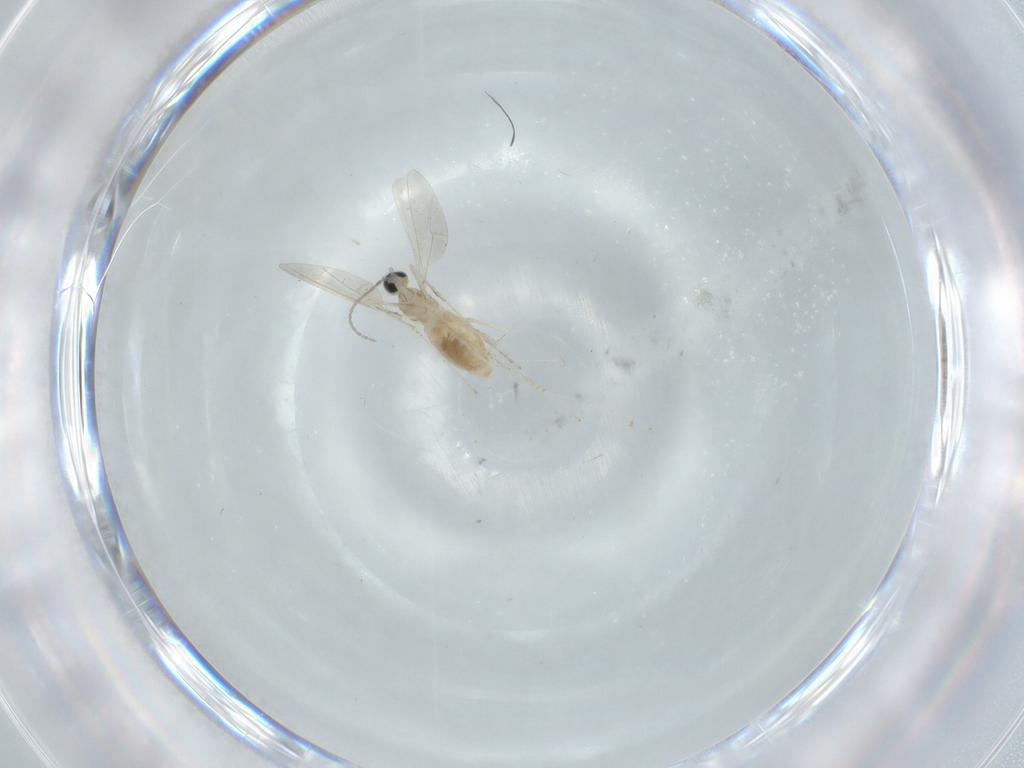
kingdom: Animalia
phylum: Arthropoda
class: Insecta
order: Diptera
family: Cecidomyiidae
